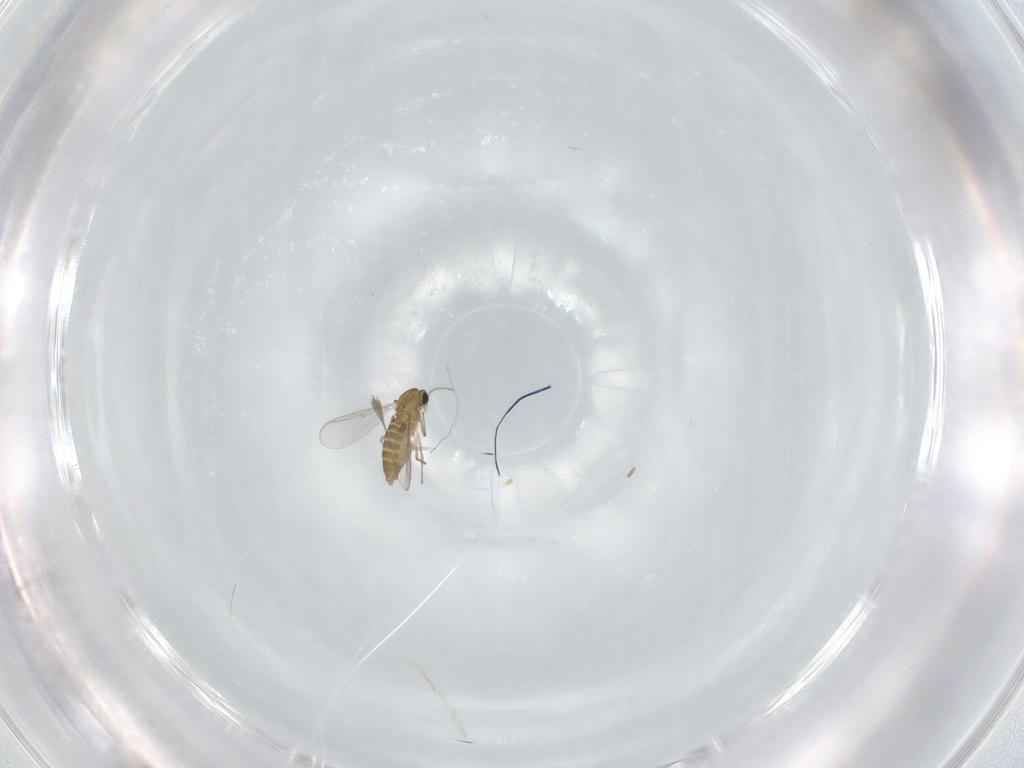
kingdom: Animalia
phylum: Arthropoda
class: Insecta
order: Diptera
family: Chironomidae
